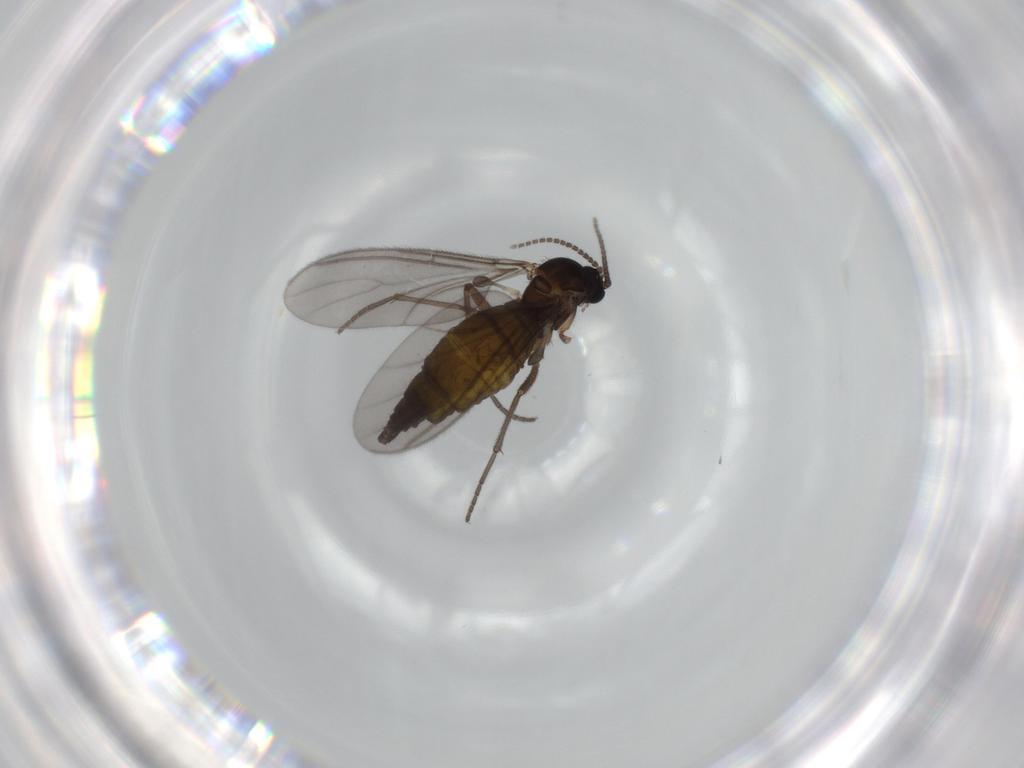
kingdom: Animalia
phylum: Arthropoda
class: Insecta
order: Diptera
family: Sciaridae
